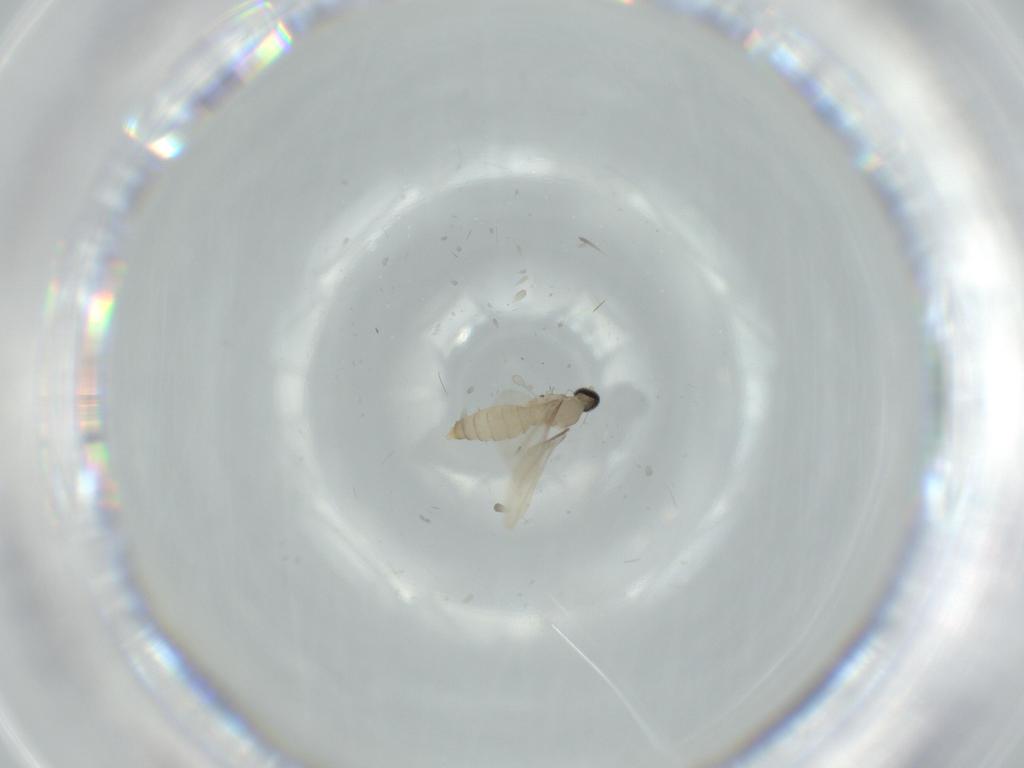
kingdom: Animalia
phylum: Arthropoda
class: Insecta
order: Diptera
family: Cecidomyiidae
